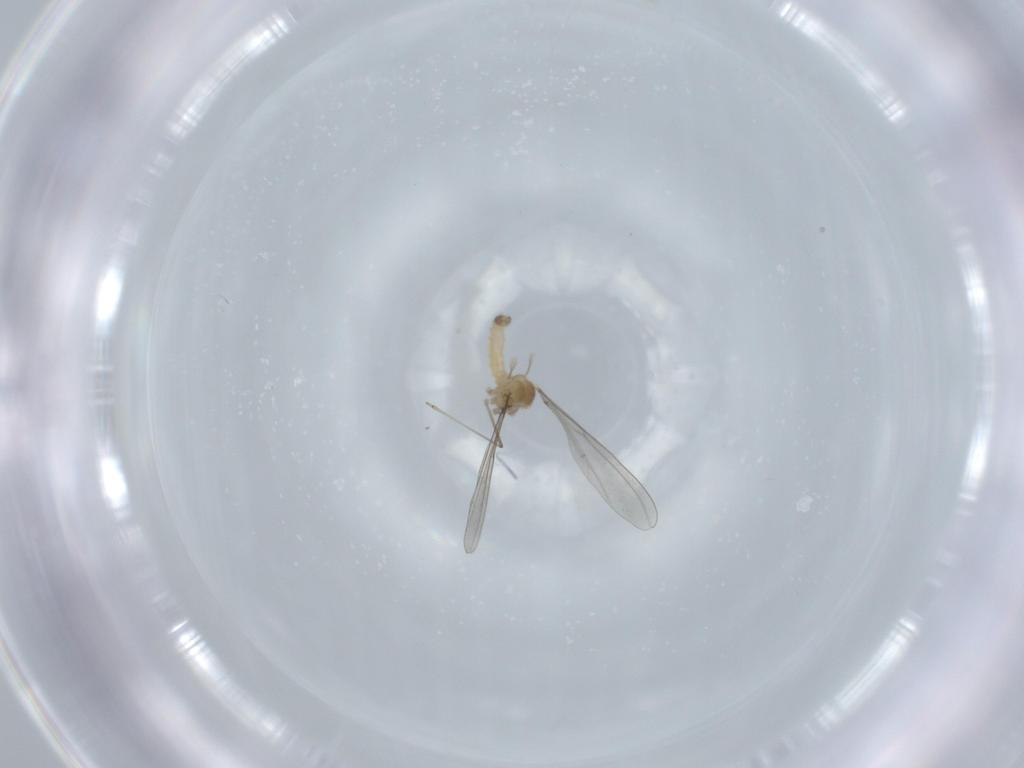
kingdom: Animalia
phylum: Arthropoda
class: Insecta
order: Diptera
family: Cecidomyiidae
